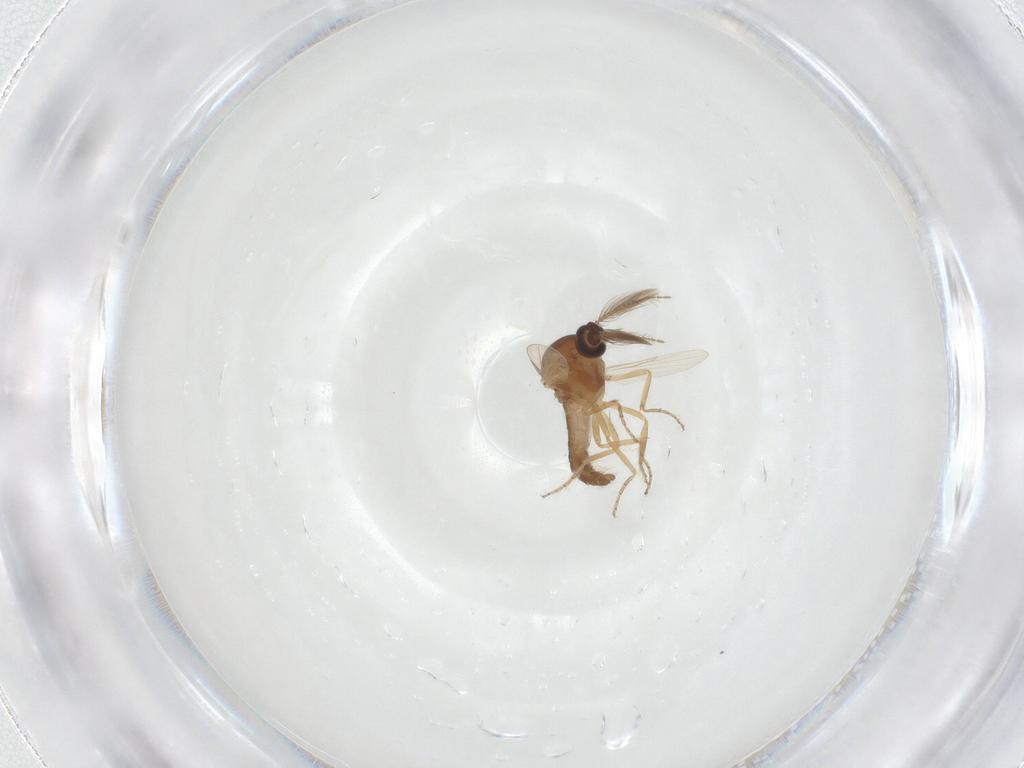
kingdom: Animalia
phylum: Arthropoda
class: Insecta
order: Diptera
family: Ceratopogonidae
